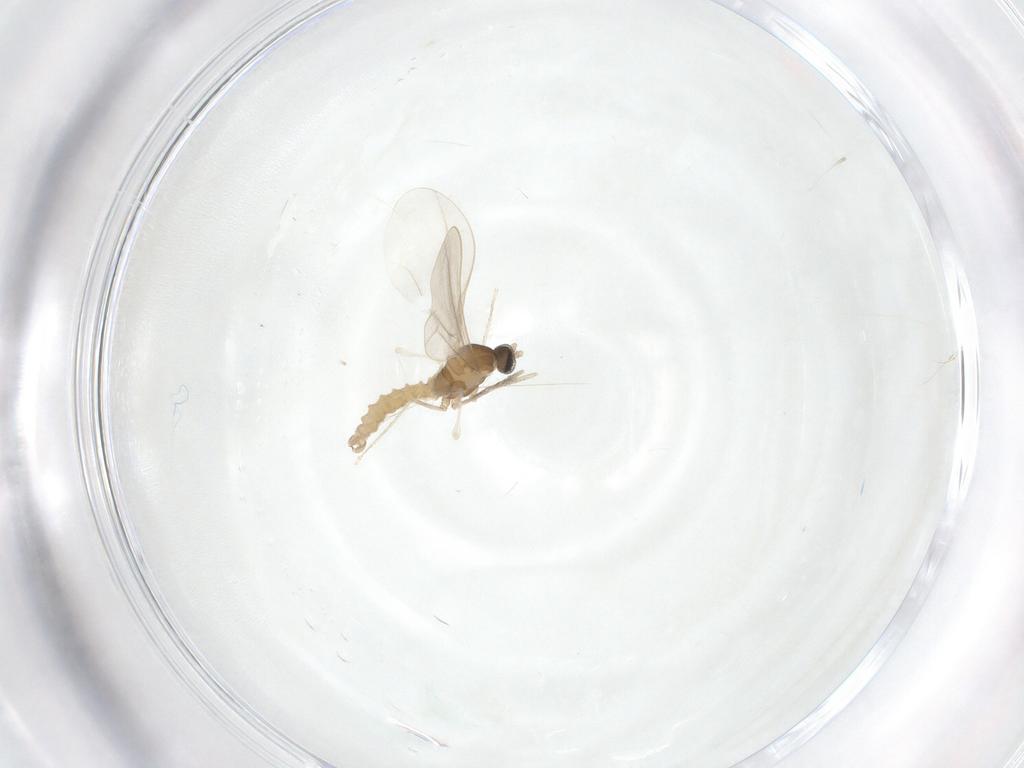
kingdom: Animalia
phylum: Arthropoda
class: Insecta
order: Diptera
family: Cecidomyiidae
